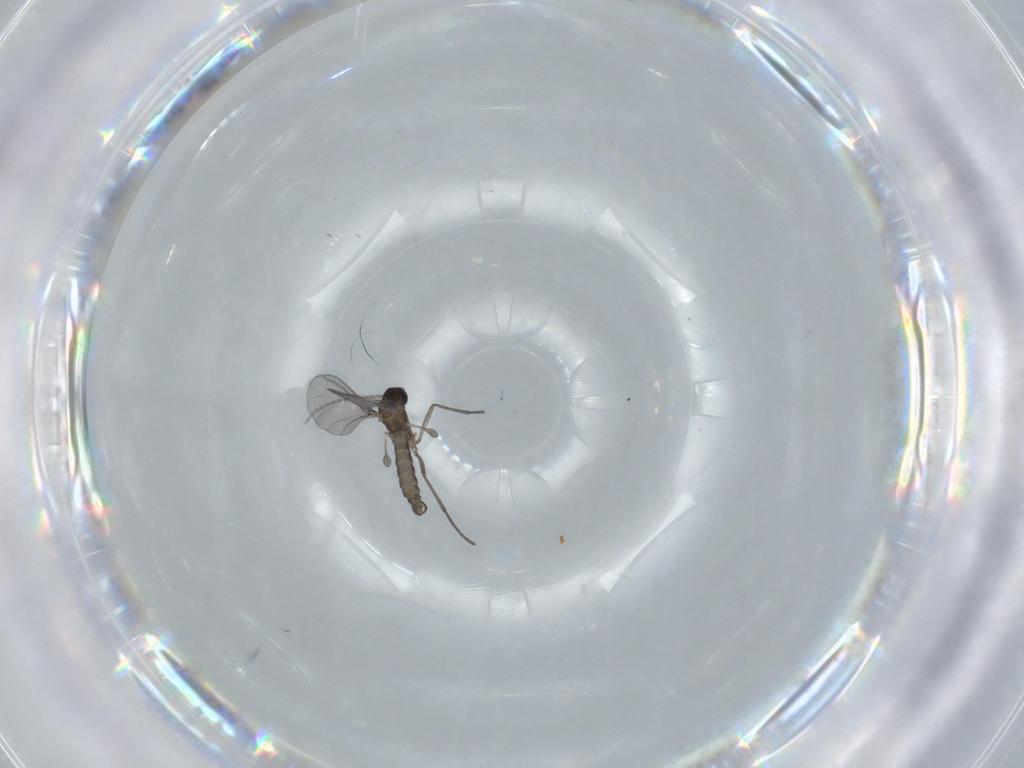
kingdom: Animalia
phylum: Arthropoda
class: Insecta
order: Diptera
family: Sciaridae
